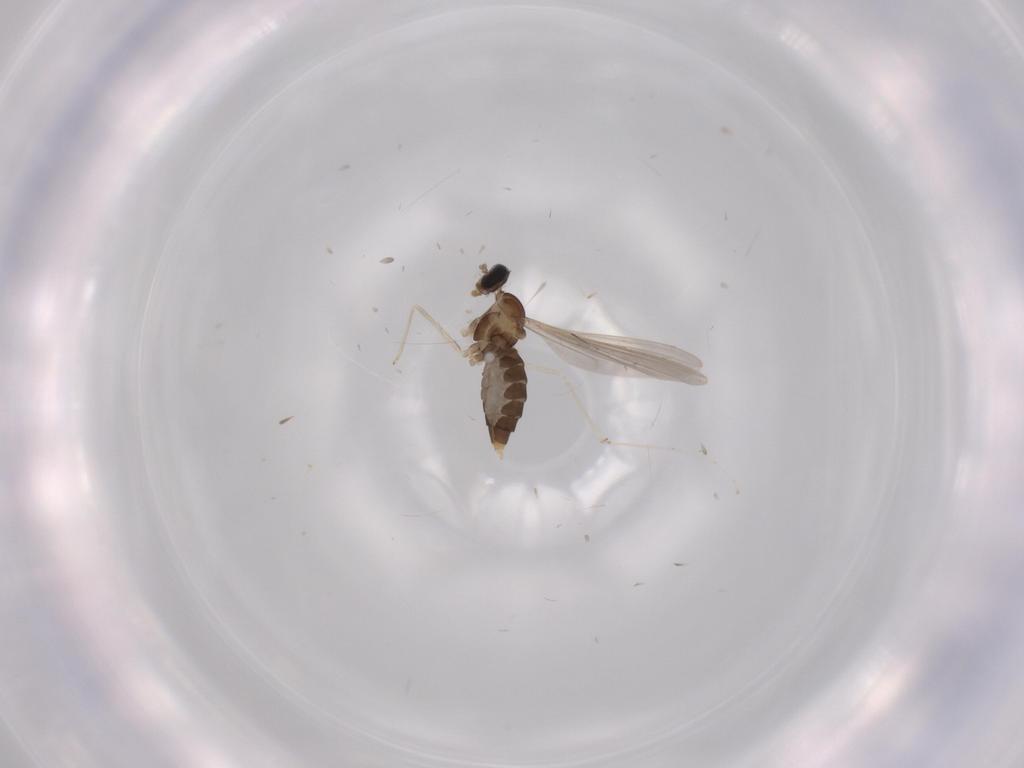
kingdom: Animalia
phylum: Arthropoda
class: Insecta
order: Diptera
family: Cecidomyiidae
